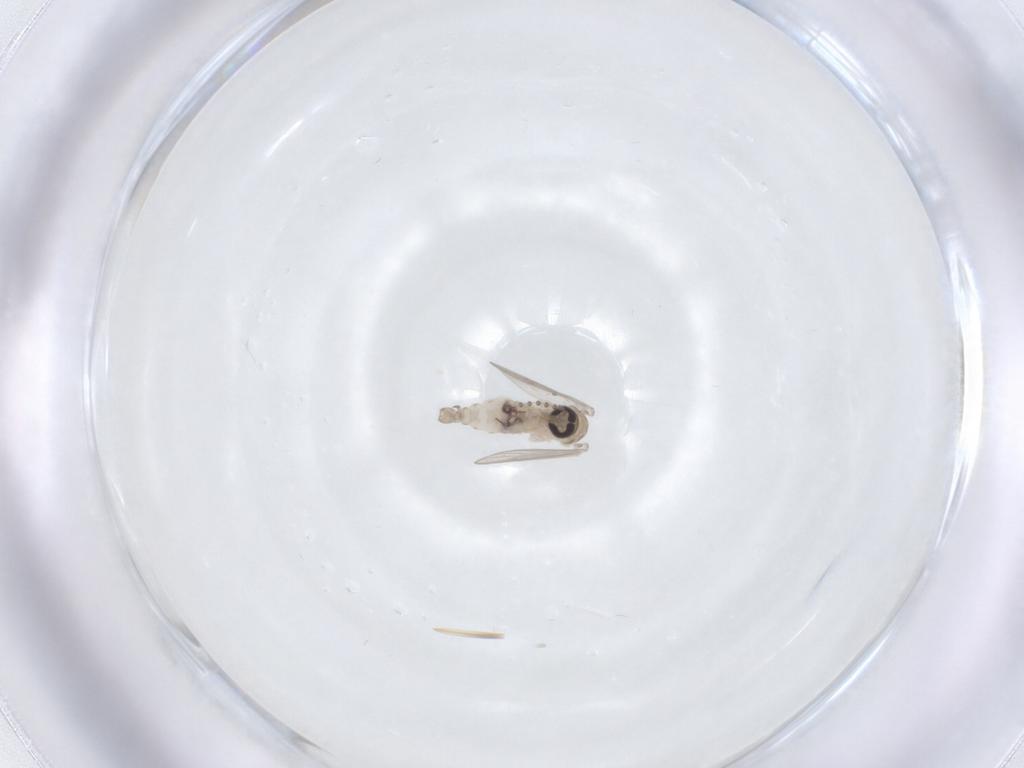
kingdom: Animalia
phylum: Arthropoda
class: Insecta
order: Diptera
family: Psychodidae
